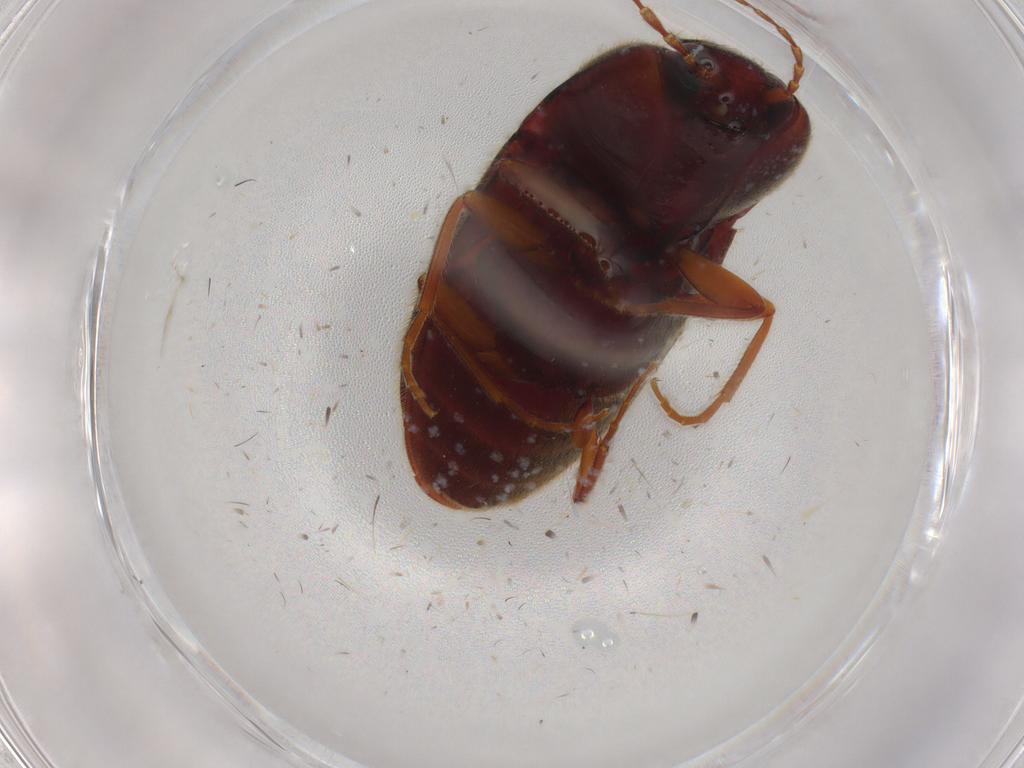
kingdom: Animalia
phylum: Arthropoda
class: Insecta
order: Coleoptera
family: Elateridae
